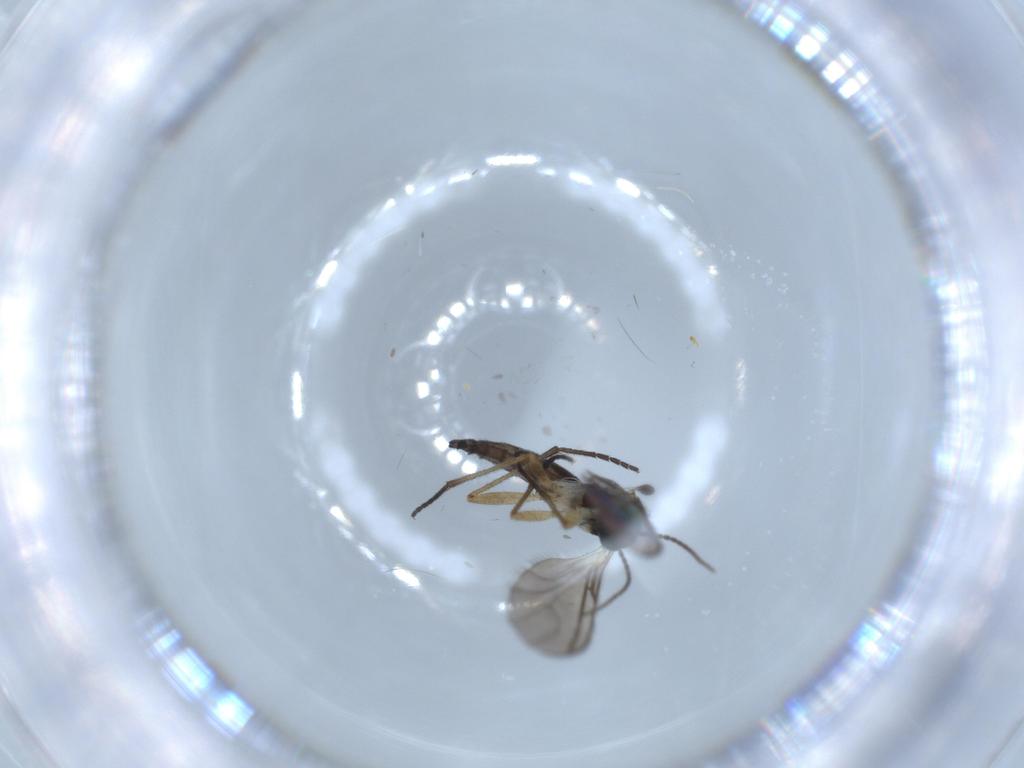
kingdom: Animalia
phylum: Arthropoda
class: Insecta
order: Diptera
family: Sciaridae
